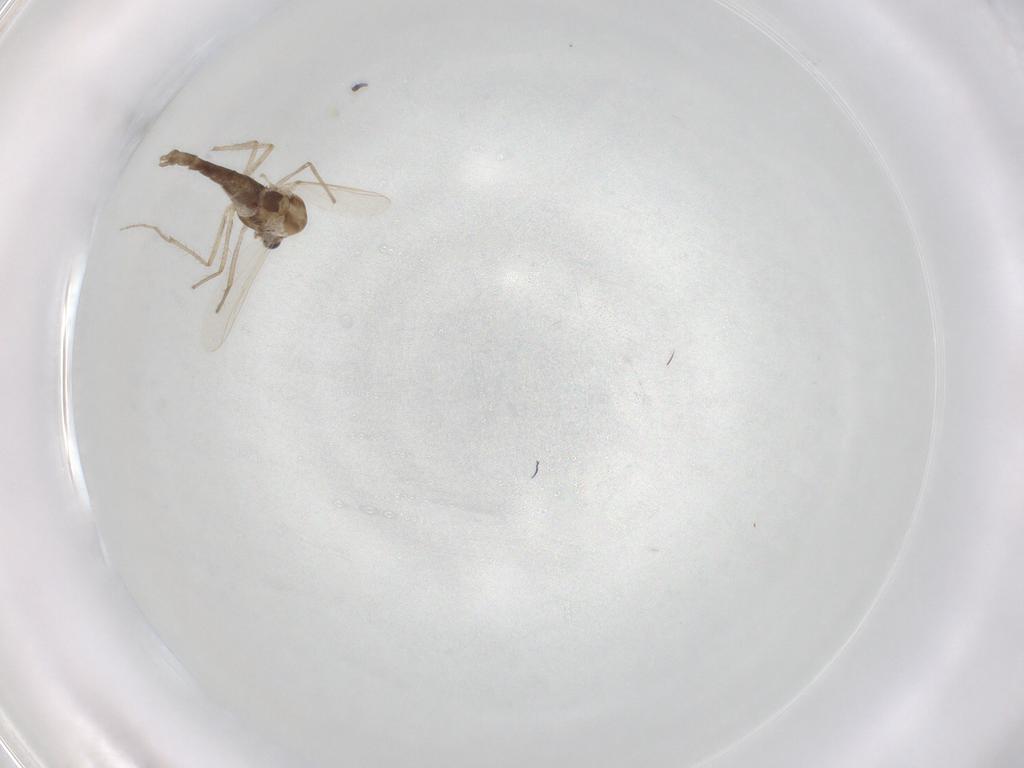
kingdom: Animalia
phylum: Arthropoda
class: Insecta
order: Diptera
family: Chironomidae
